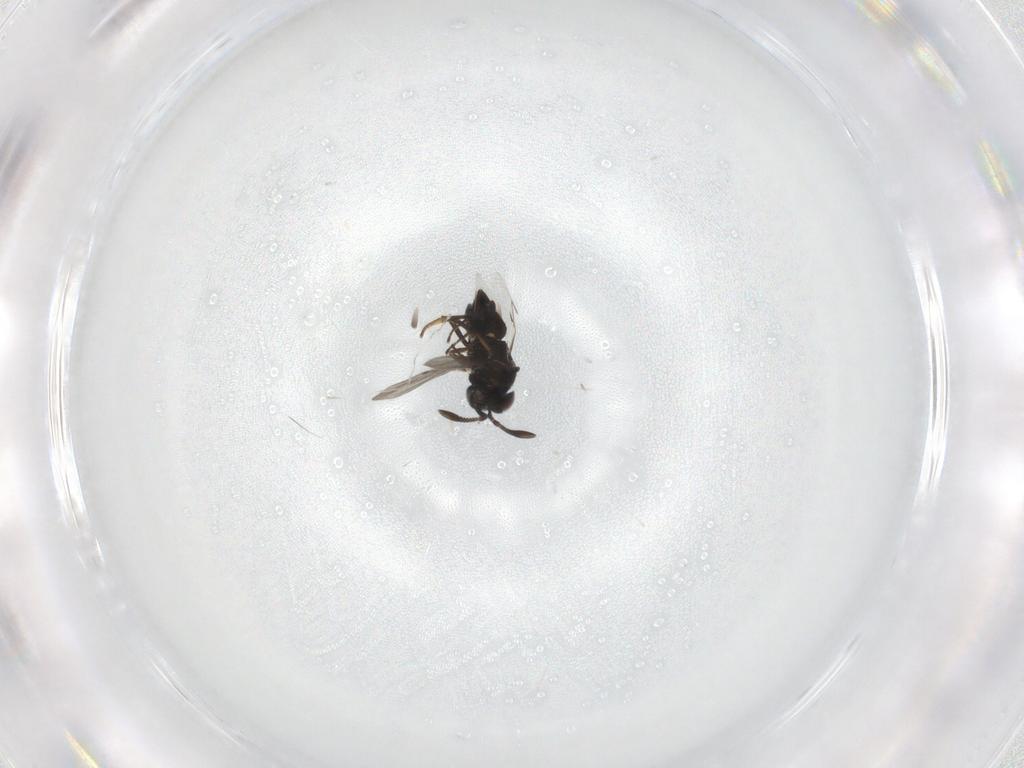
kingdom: Animalia
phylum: Arthropoda
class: Insecta
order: Hymenoptera
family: Encyrtidae
